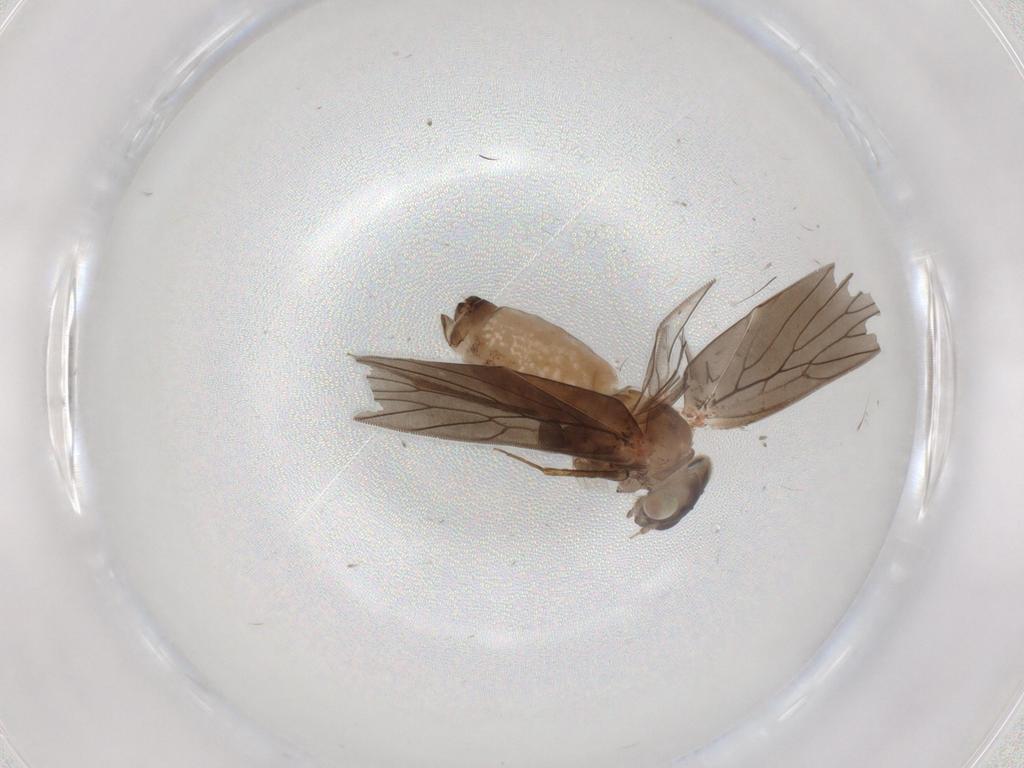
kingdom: Animalia
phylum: Arthropoda
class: Insecta
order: Psocodea
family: Lepidopsocidae
